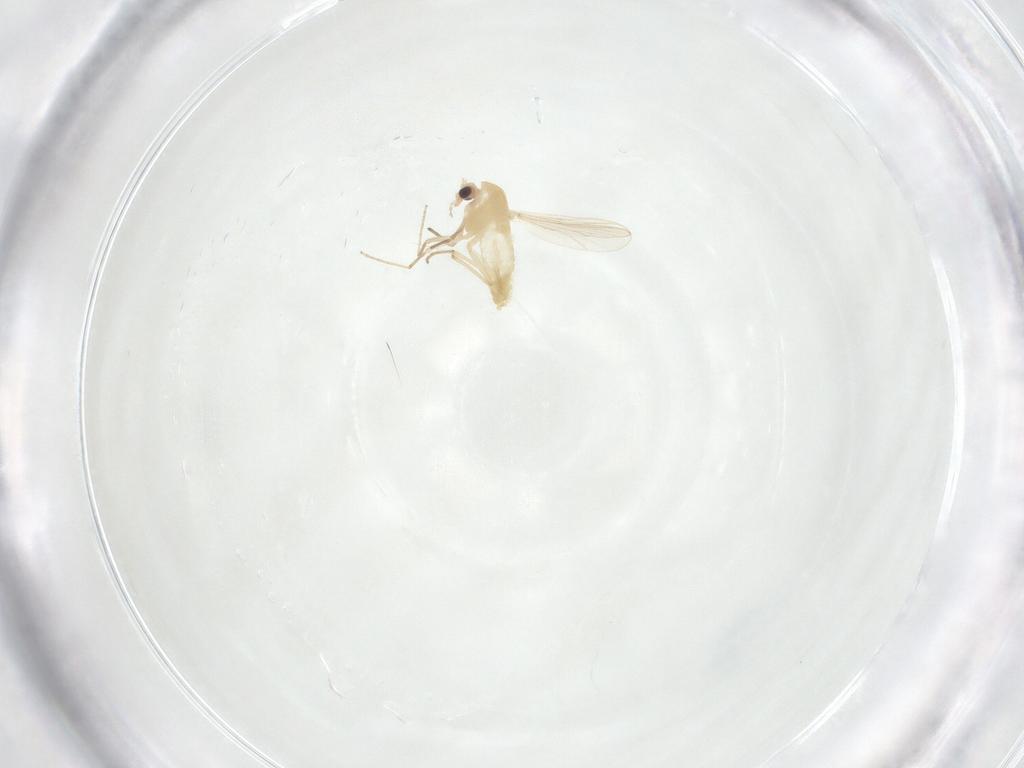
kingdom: Animalia
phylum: Arthropoda
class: Insecta
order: Diptera
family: Chironomidae
